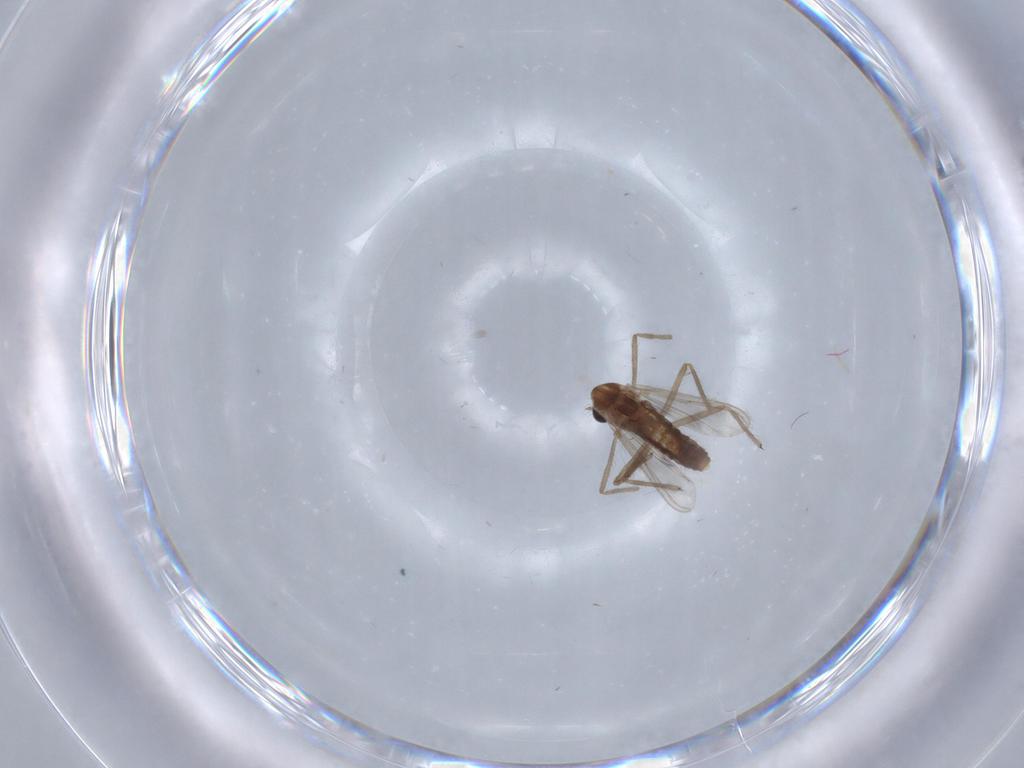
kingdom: Animalia
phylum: Arthropoda
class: Insecta
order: Diptera
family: Chironomidae
